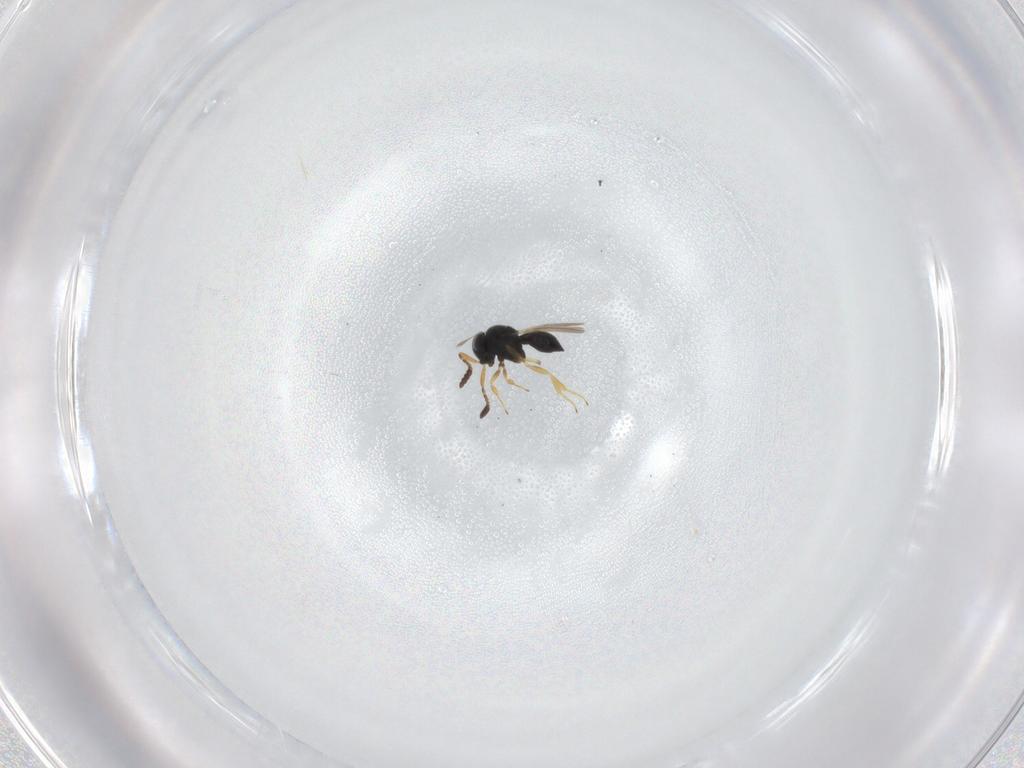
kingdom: Animalia
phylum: Arthropoda
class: Insecta
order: Hymenoptera
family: Scelionidae
